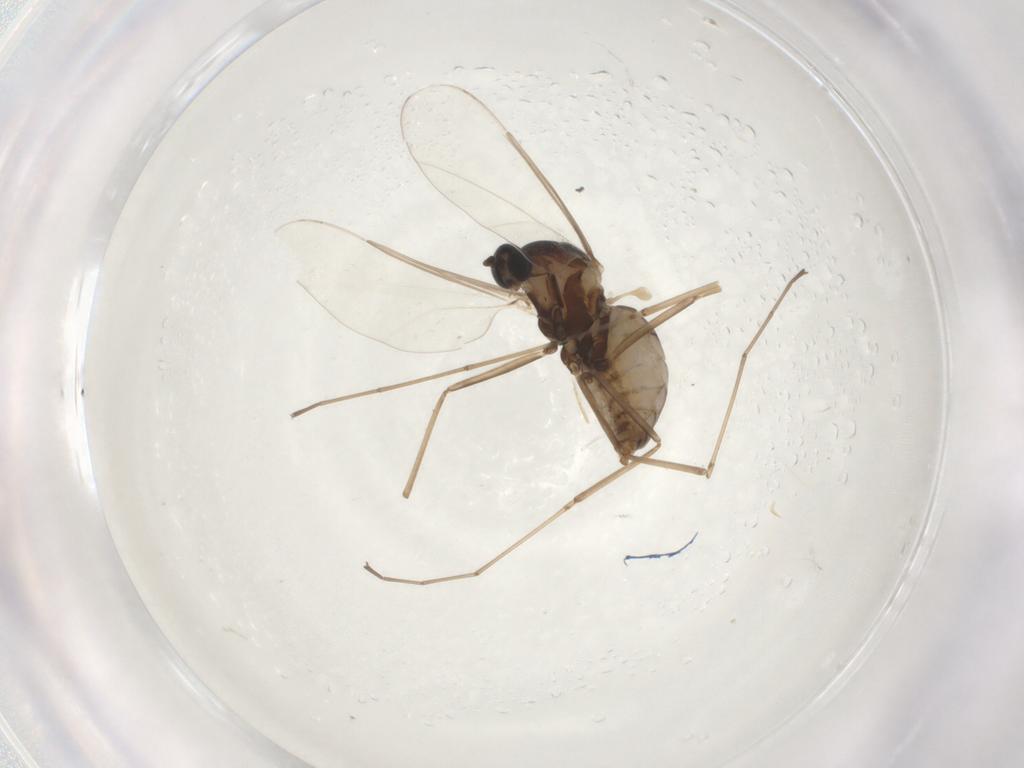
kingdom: Animalia
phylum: Arthropoda
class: Insecta
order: Diptera
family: Cecidomyiidae
